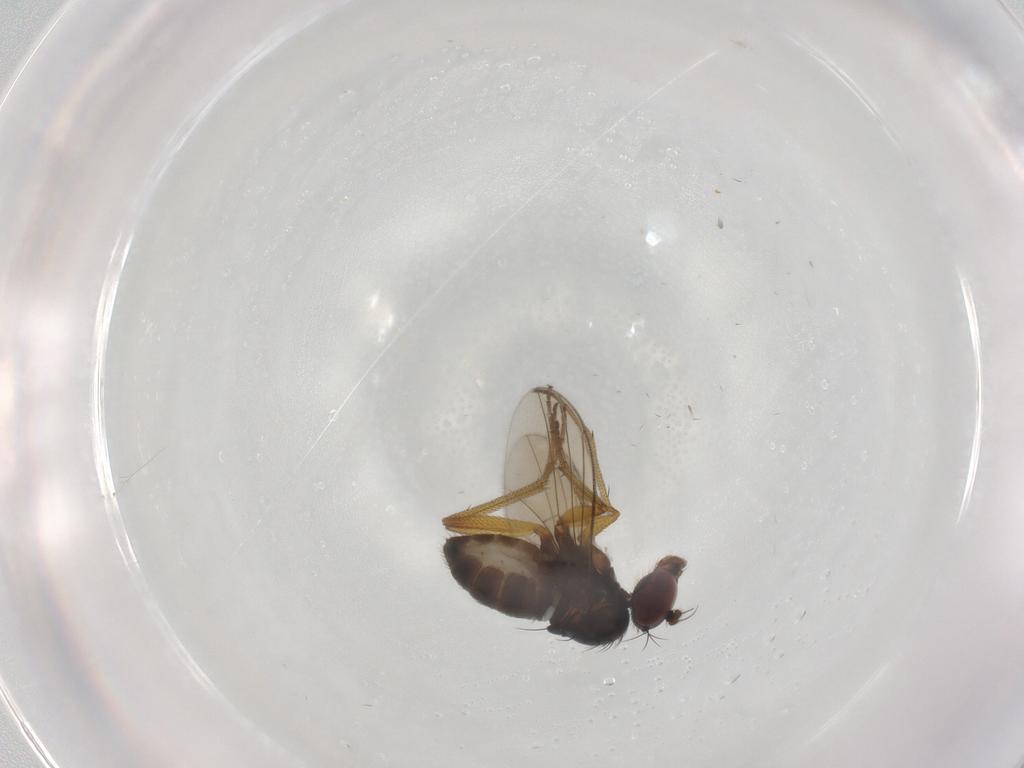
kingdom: Animalia
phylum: Arthropoda
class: Insecta
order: Diptera
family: Dolichopodidae
